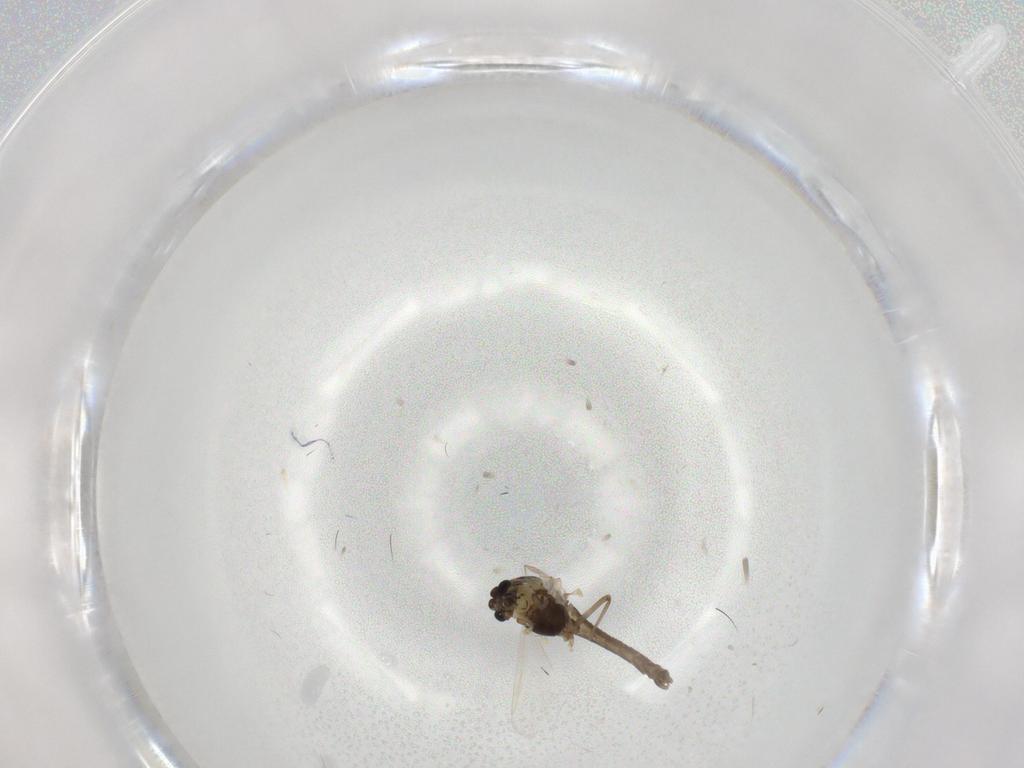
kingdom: Animalia
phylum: Arthropoda
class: Insecta
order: Diptera
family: Chironomidae
